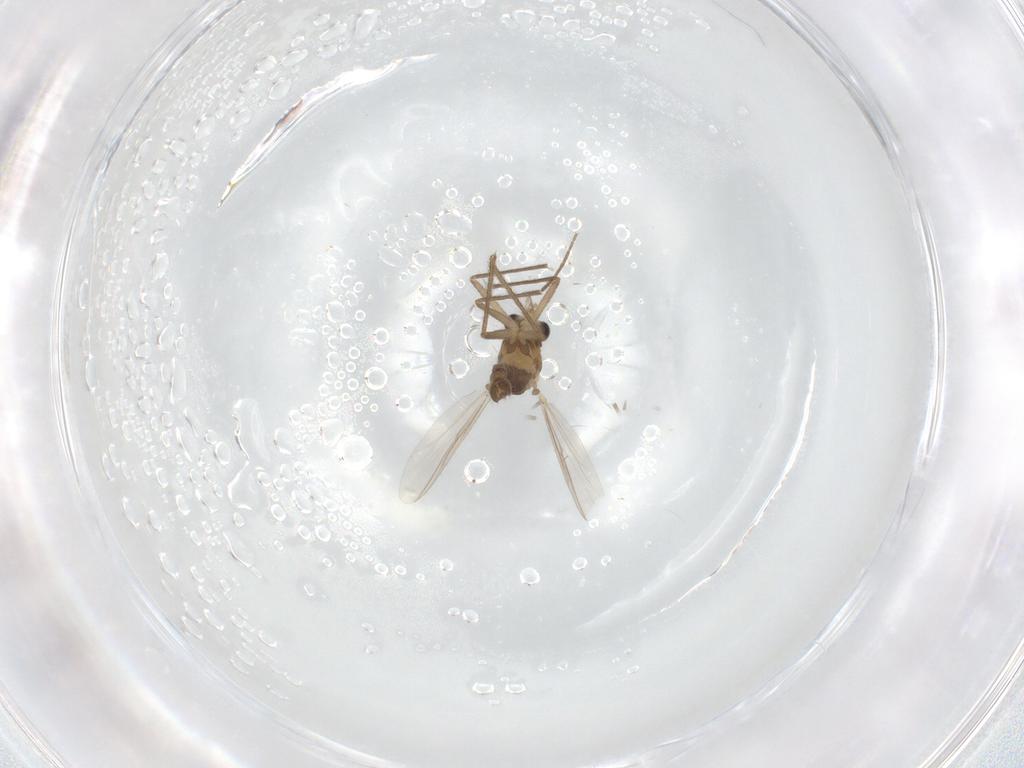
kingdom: Animalia
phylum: Arthropoda
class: Insecta
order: Diptera
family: Chironomidae
